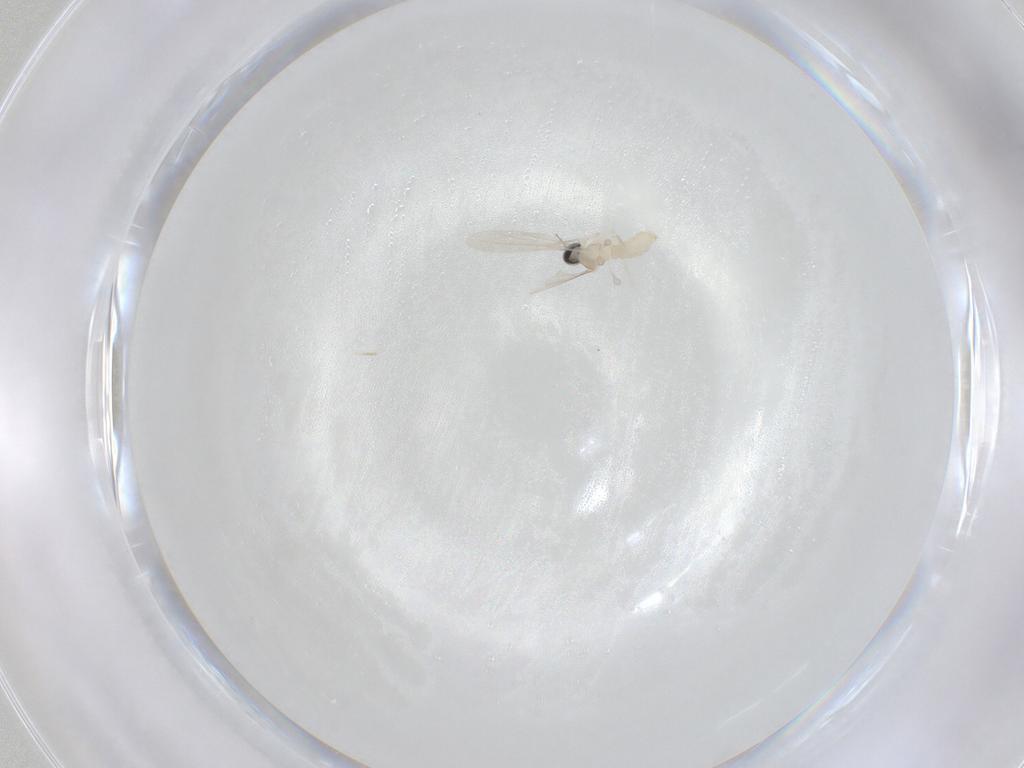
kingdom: Animalia
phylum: Arthropoda
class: Insecta
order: Diptera
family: Cecidomyiidae
